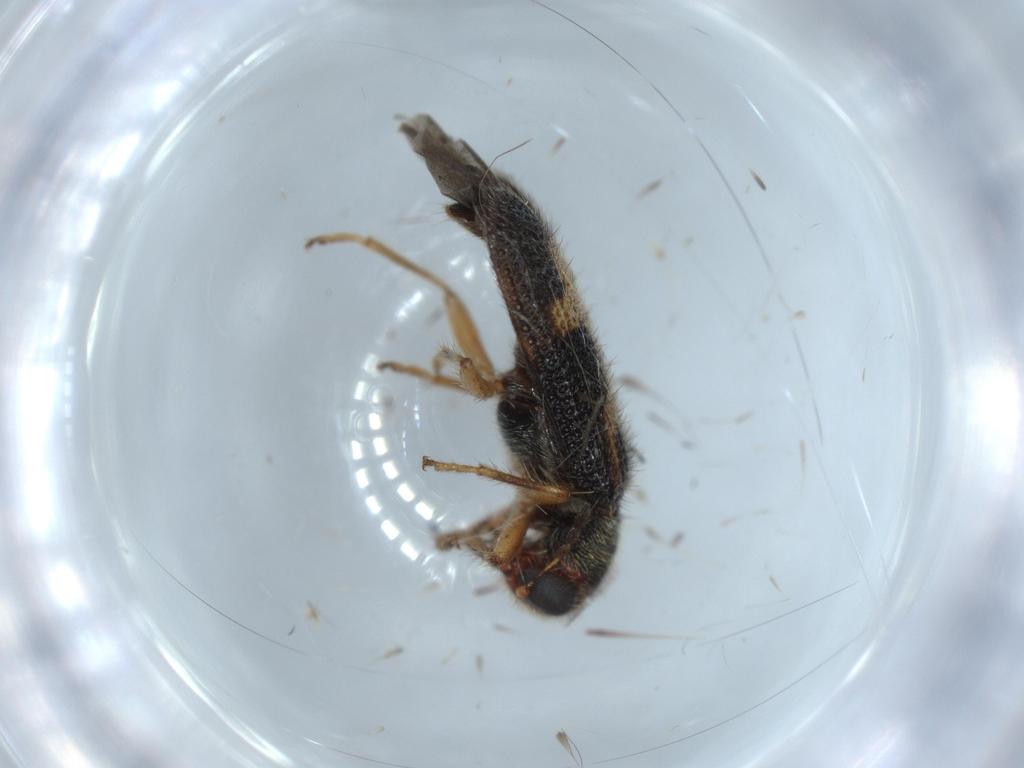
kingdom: Animalia
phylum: Arthropoda
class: Insecta
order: Coleoptera
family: Cleridae
